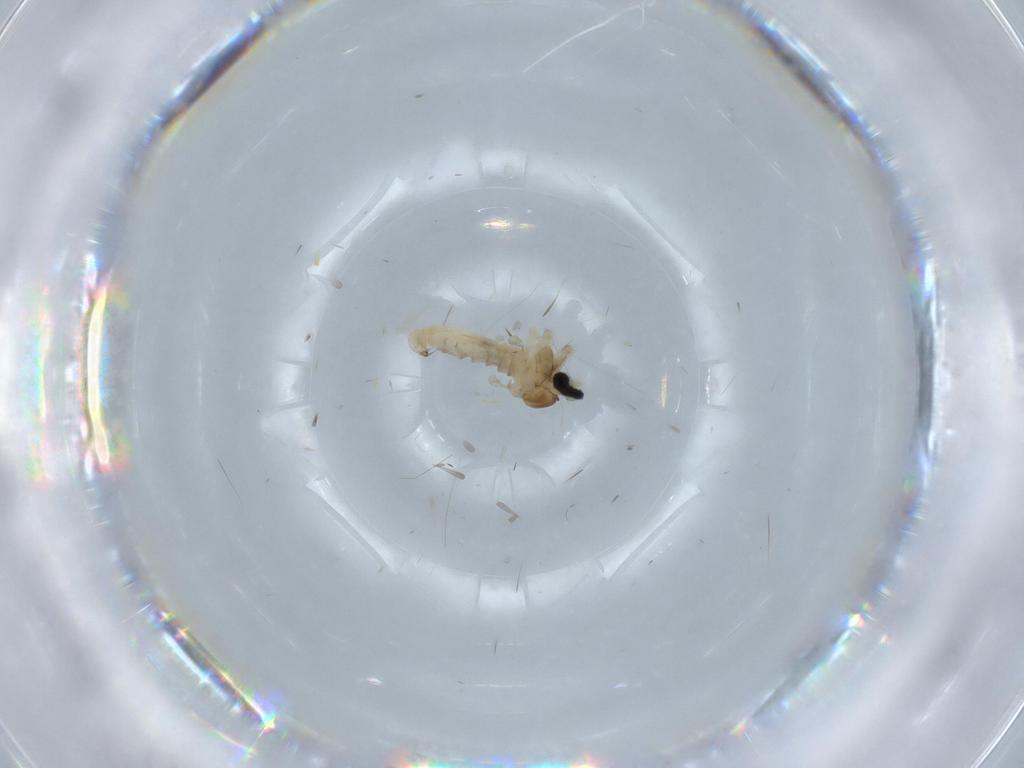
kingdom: Animalia
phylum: Arthropoda
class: Insecta
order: Diptera
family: Cecidomyiidae
